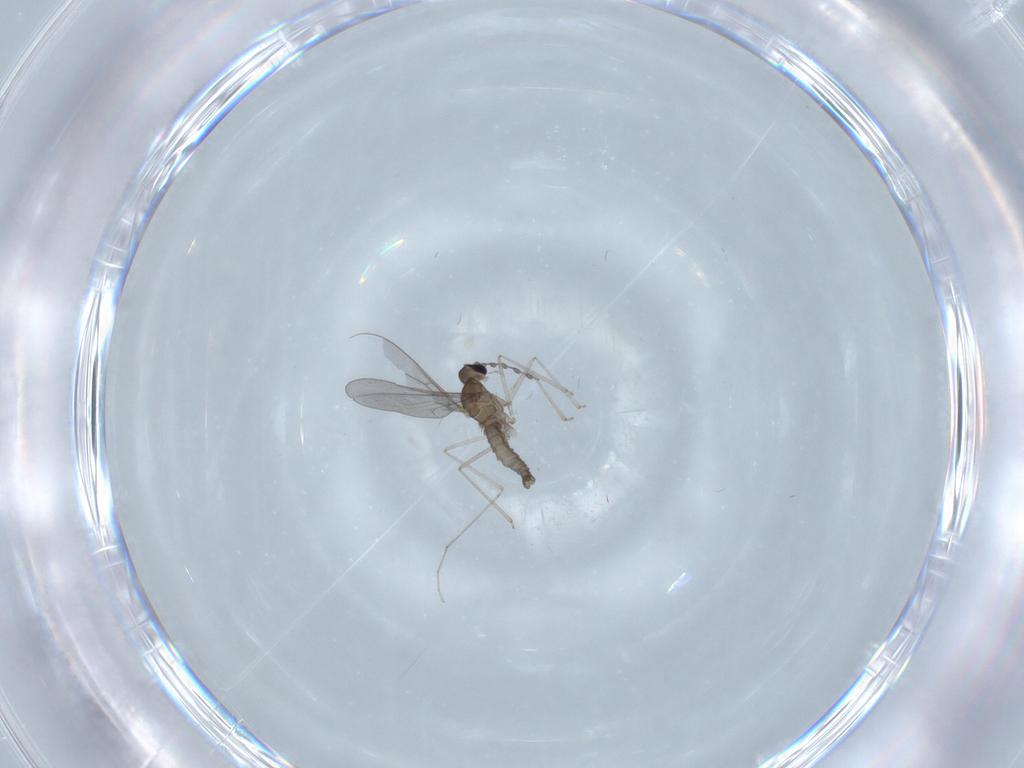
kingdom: Animalia
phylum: Arthropoda
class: Insecta
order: Diptera
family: Cecidomyiidae
